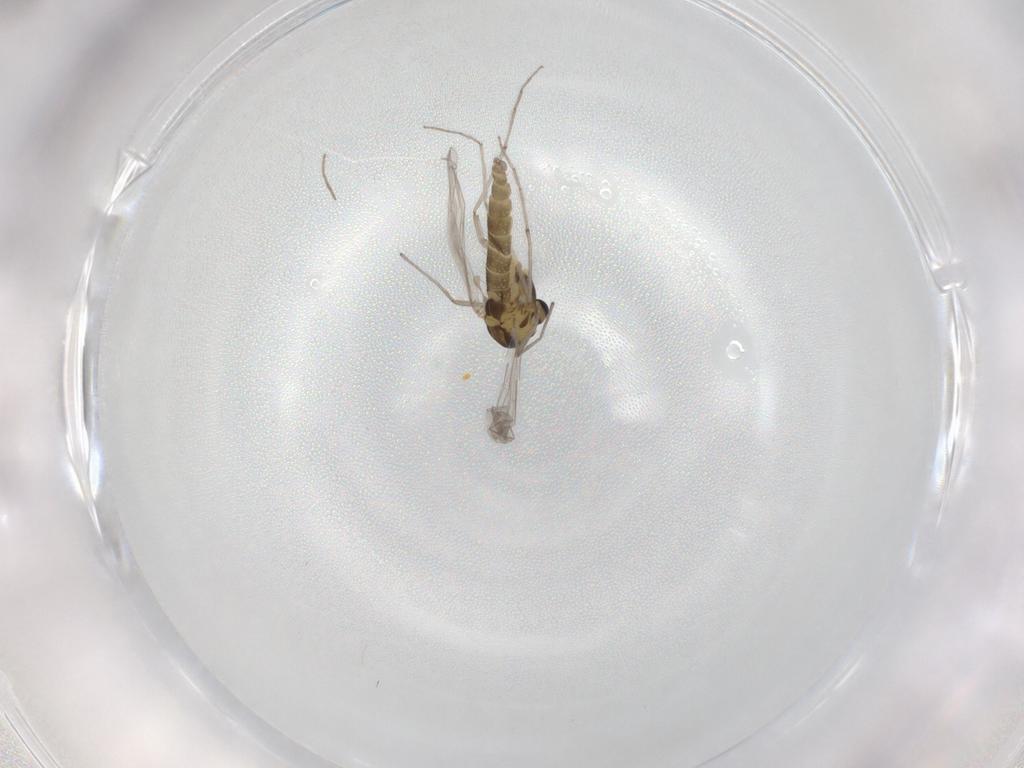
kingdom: Animalia
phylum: Arthropoda
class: Insecta
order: Diptera
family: Chironomidae
